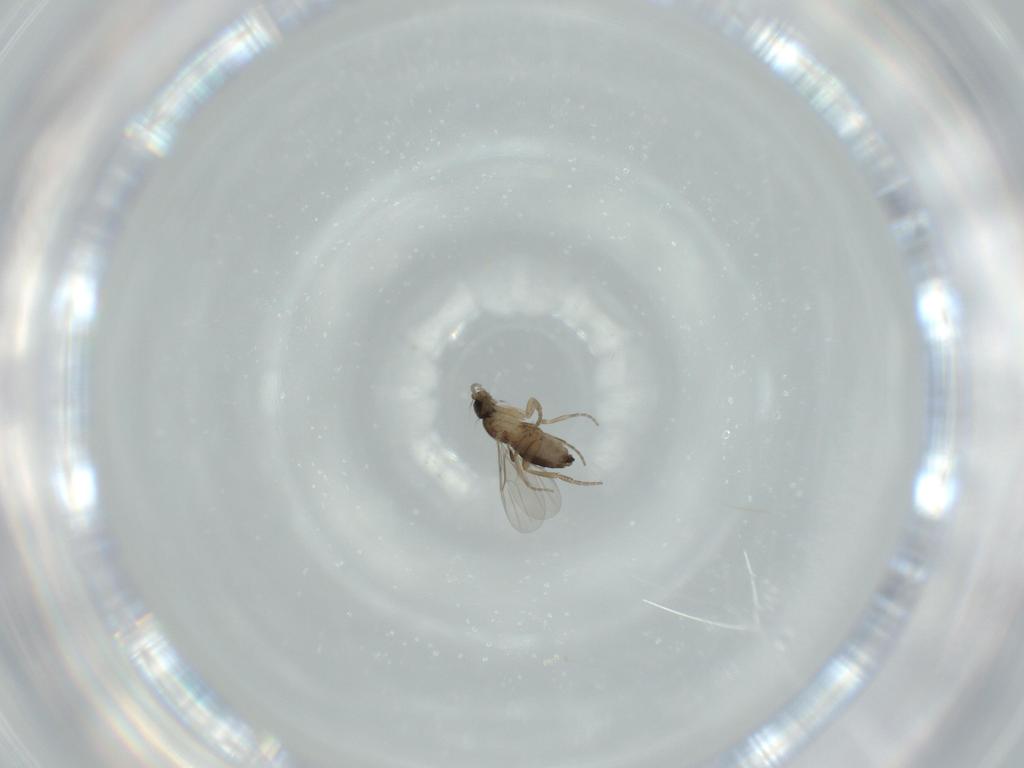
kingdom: Animalia
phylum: Arthropoda
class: Insecta
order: Diptera
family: Phoridae
